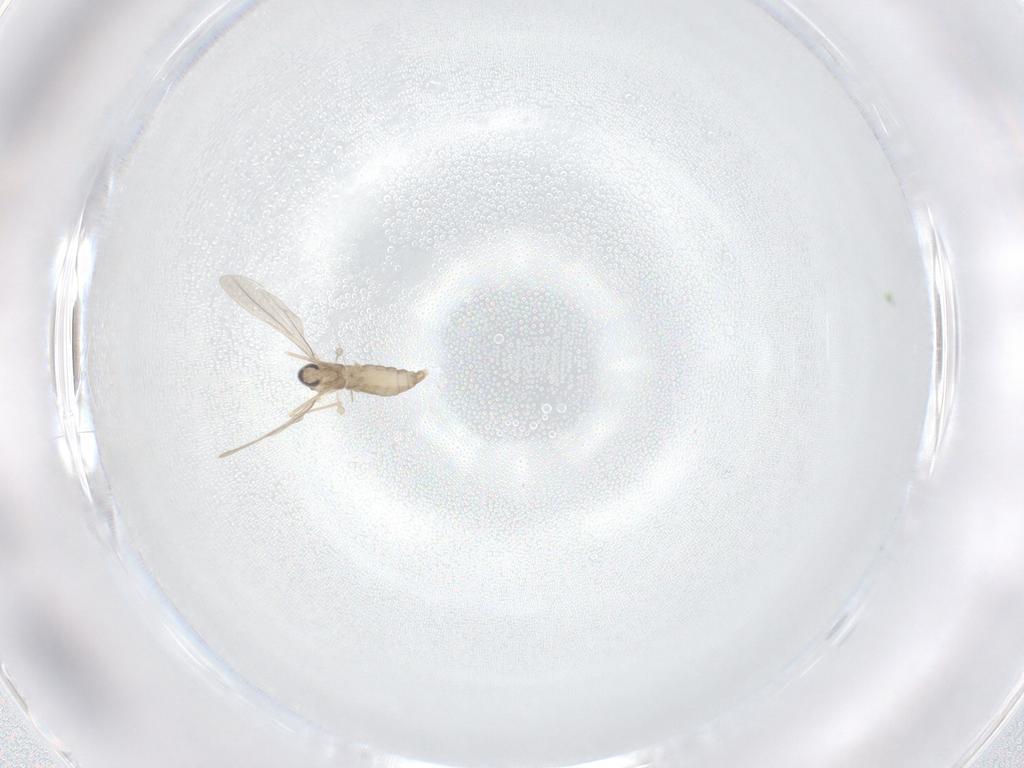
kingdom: Animalia
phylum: Arthropoda
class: Insecta
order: Diptera
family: Cecidomyiidae
